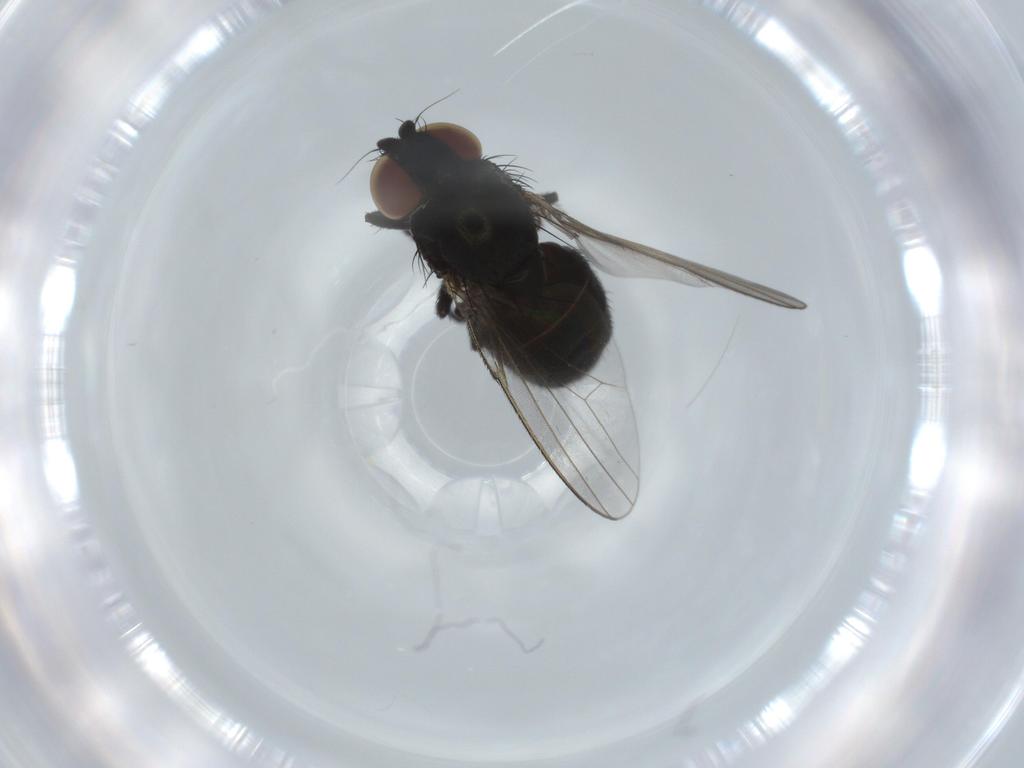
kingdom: Animalia
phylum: Arthropoda
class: Insecta
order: Diptera
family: Milichiidae
